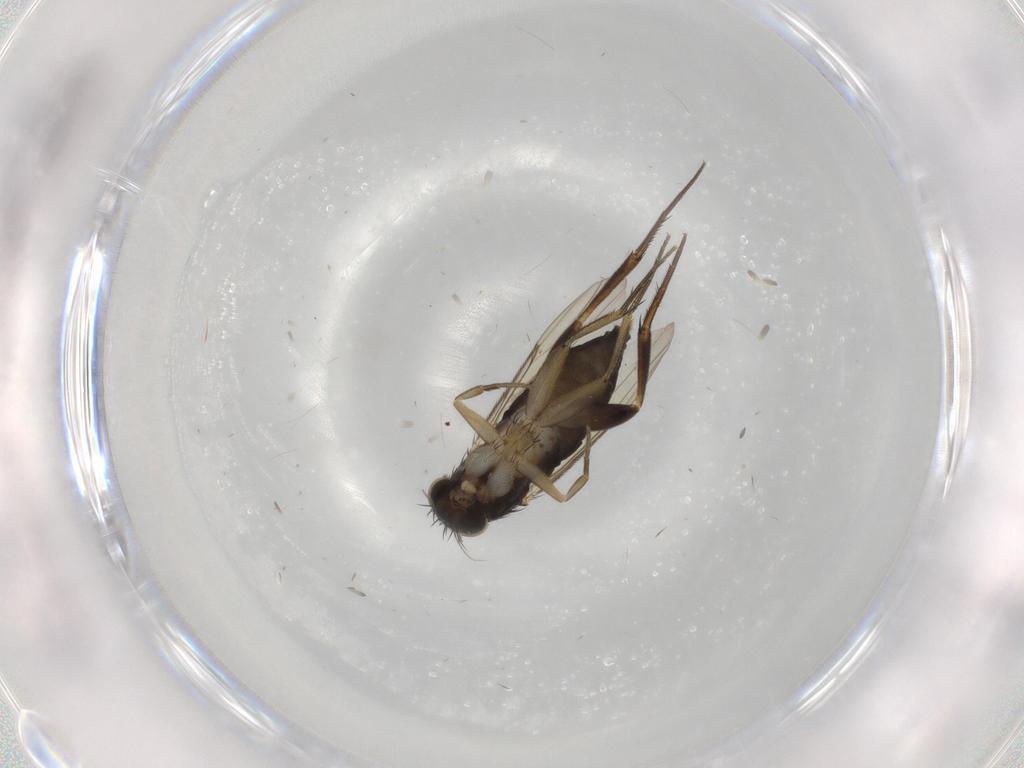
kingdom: Animalia
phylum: Arthropoda
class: Insecta
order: Diptera
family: Phoridae
